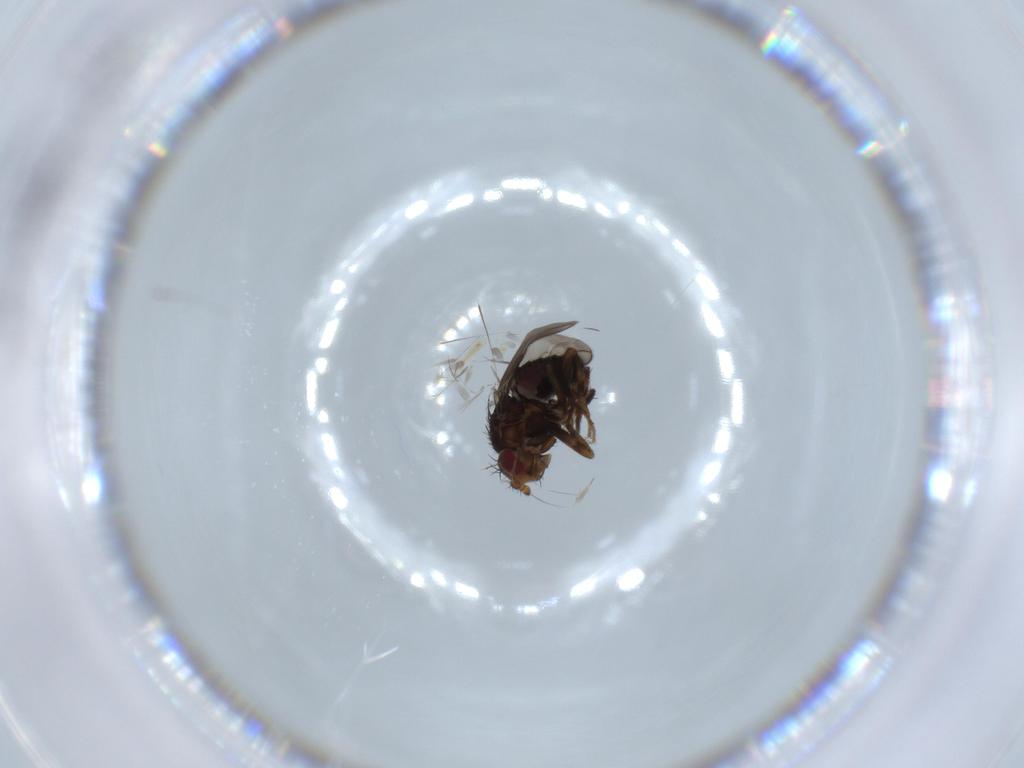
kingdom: Animalia
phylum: Arthropoda
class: Insecta
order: Diptera
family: Sphaeroceridae
